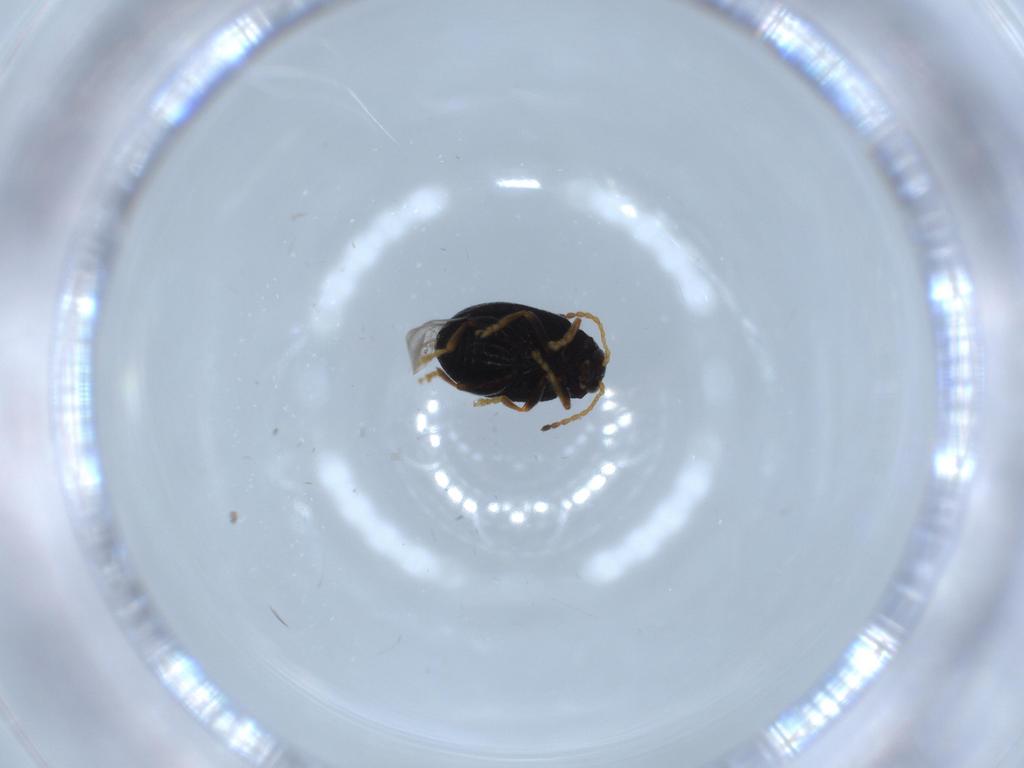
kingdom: Animalia
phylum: Arthropoda
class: Insecta
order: Coleoptera
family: Chrysomelidae
